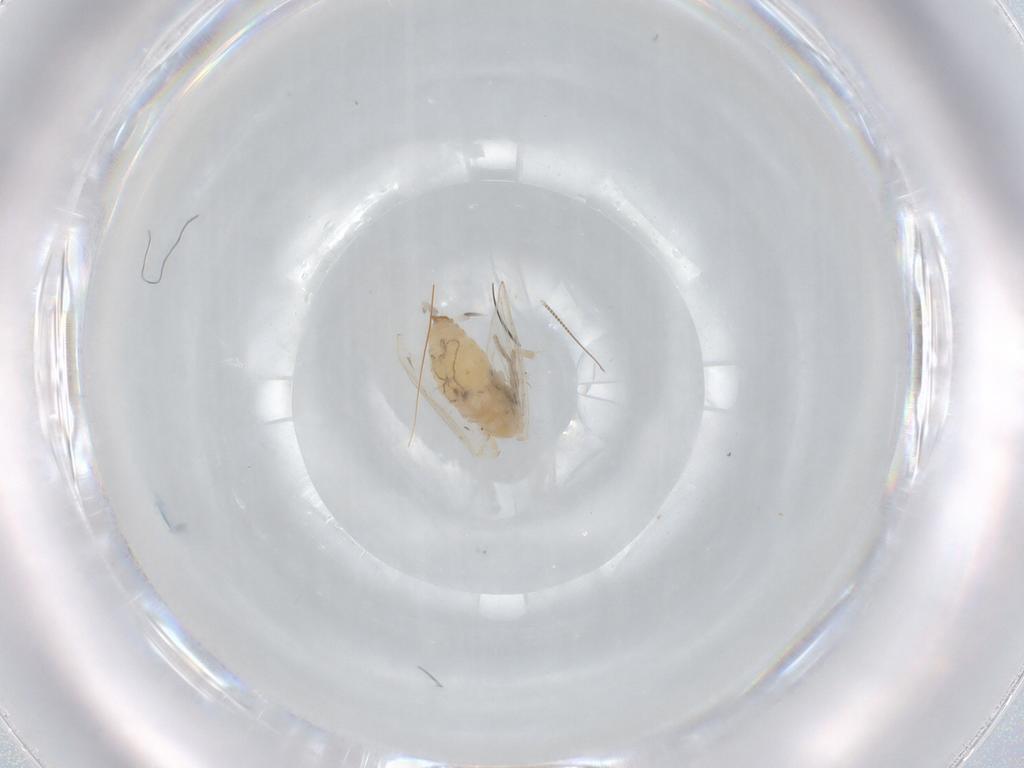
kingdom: Animalia
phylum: Arthropoda
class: Insecta
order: Diptera
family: Psychodidae
